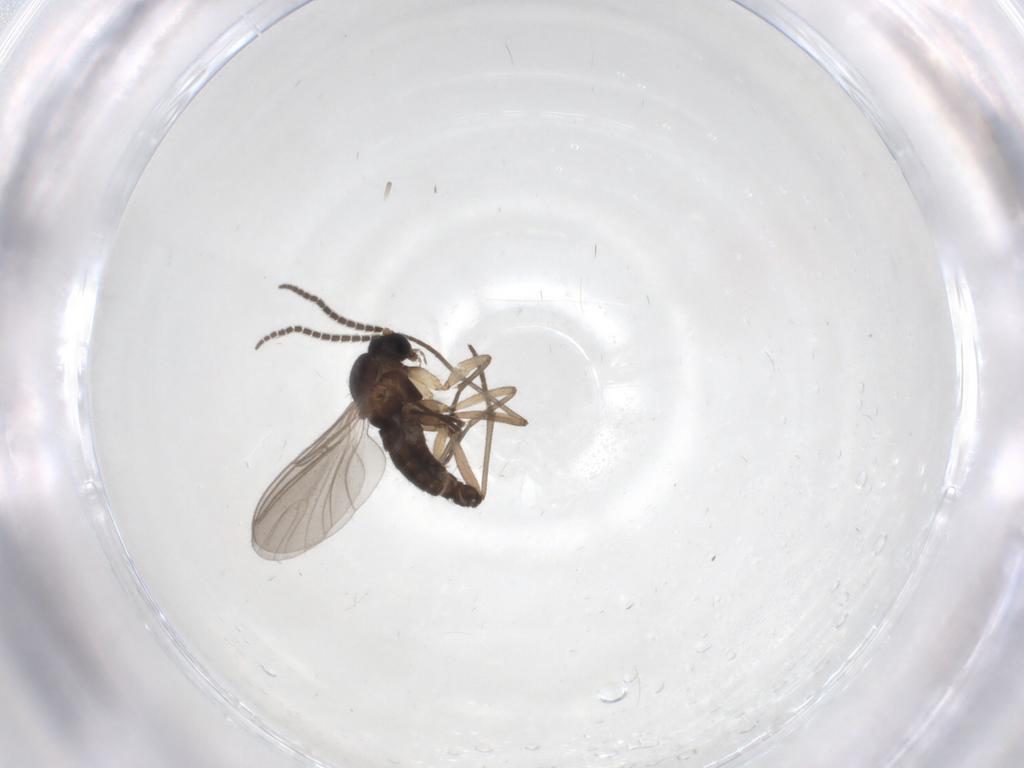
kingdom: Animalia
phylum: Arthropoda
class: Insecta
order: Diptera
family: Sciaridae
